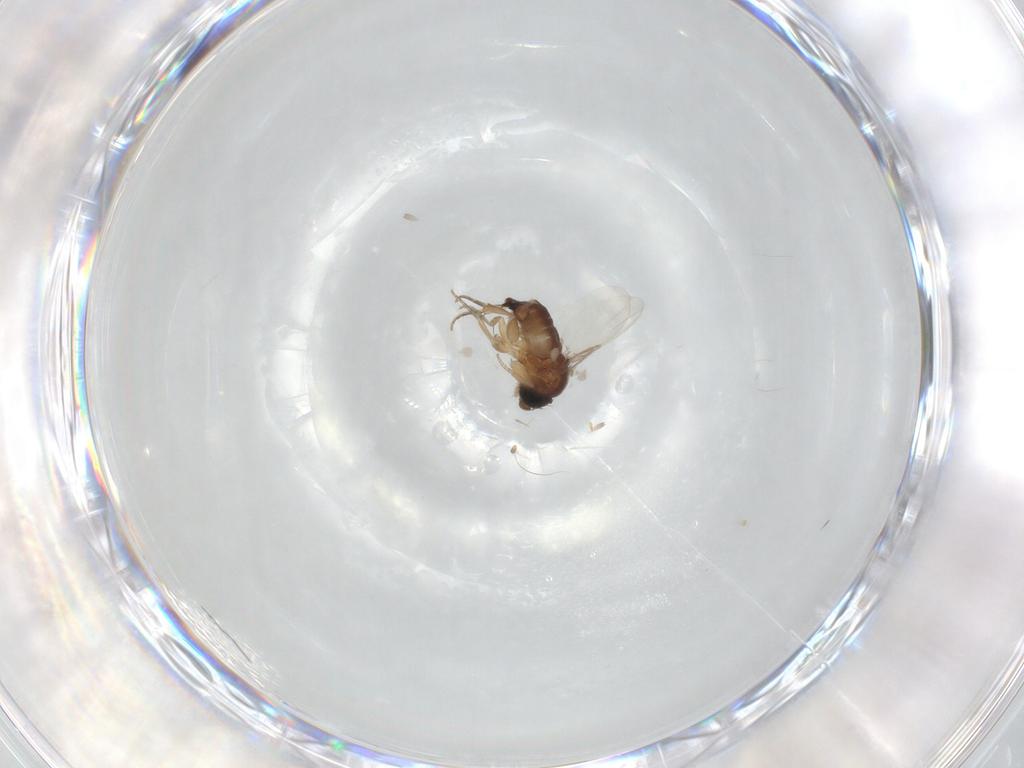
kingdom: Animalia
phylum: Arthropoda
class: Insecta
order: Diptera
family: Phoridae
